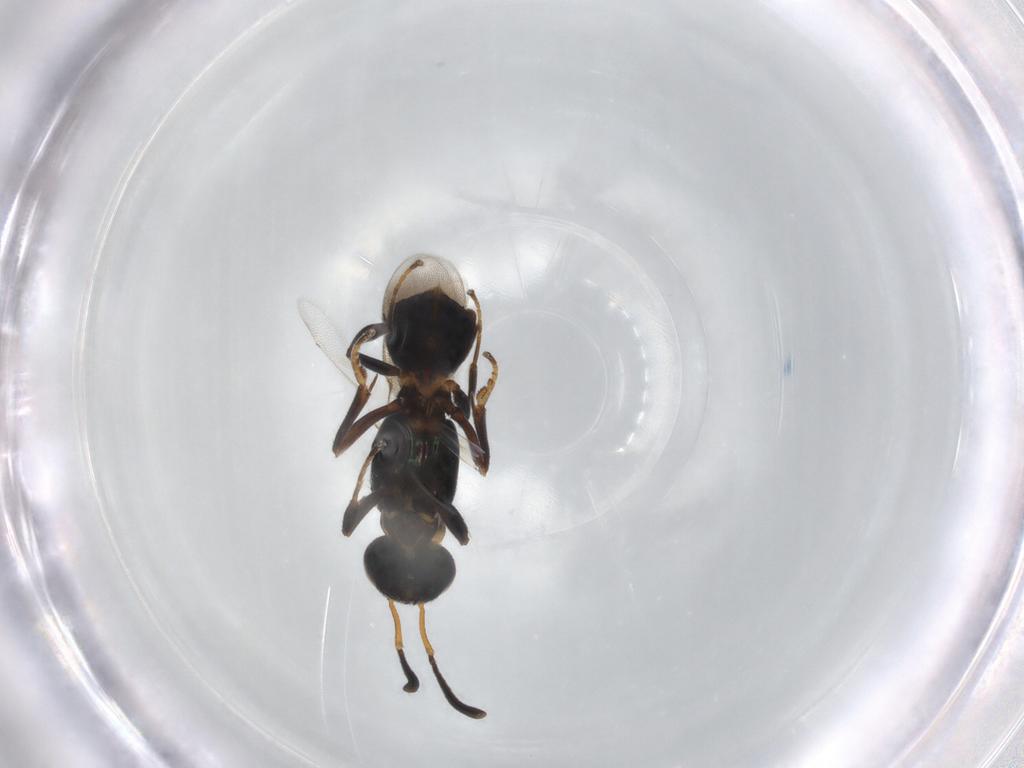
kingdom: Animalia
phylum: Arthropoda
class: Insecta
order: Hymenoptera
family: Eupelmidae
